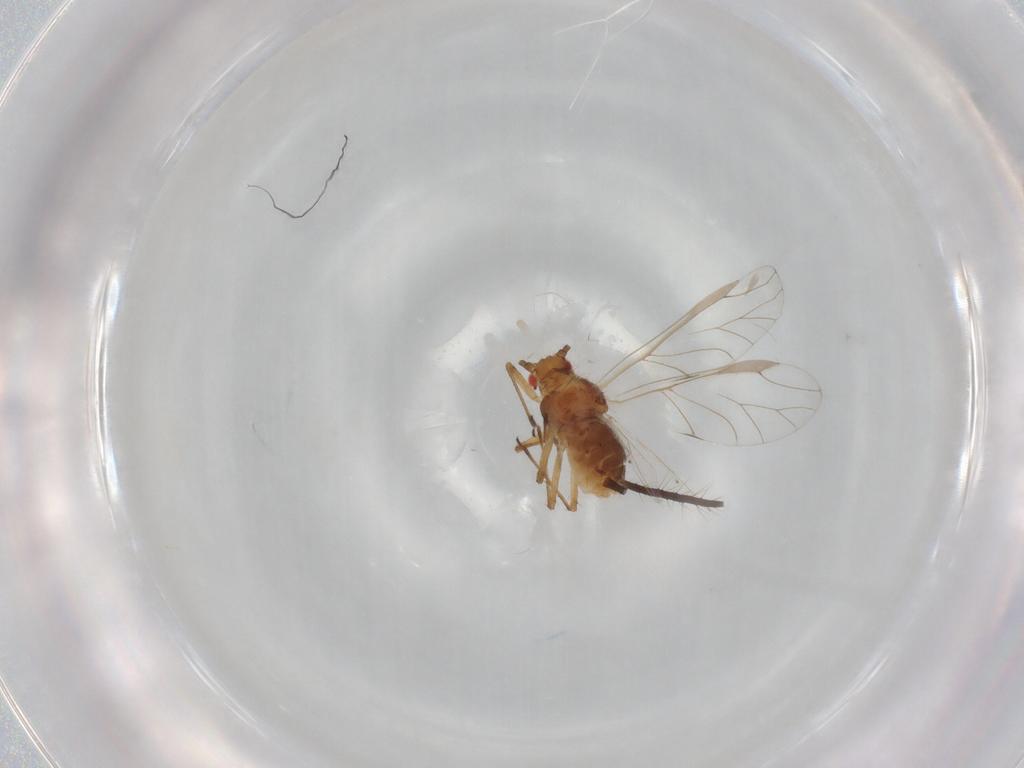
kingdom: Animalia
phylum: Arthropoda
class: Insecta
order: Hemiptera
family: Aphididae
